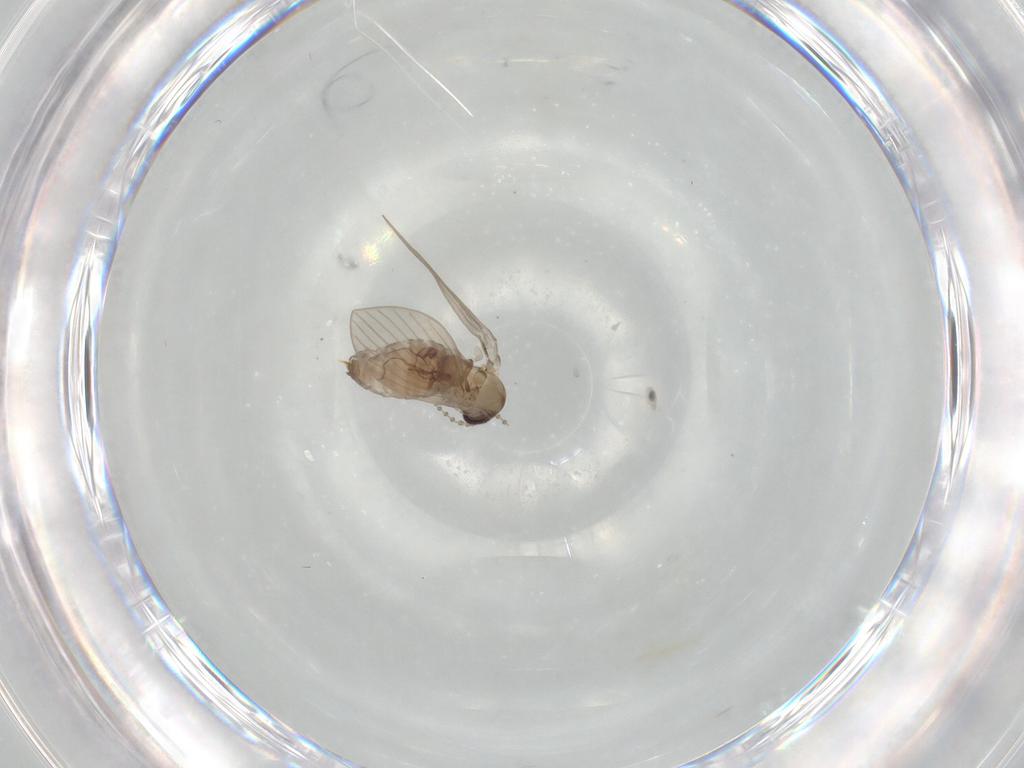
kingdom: Animalia
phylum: Arthropoda
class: Insecta
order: Diptera
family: Psychodidae
